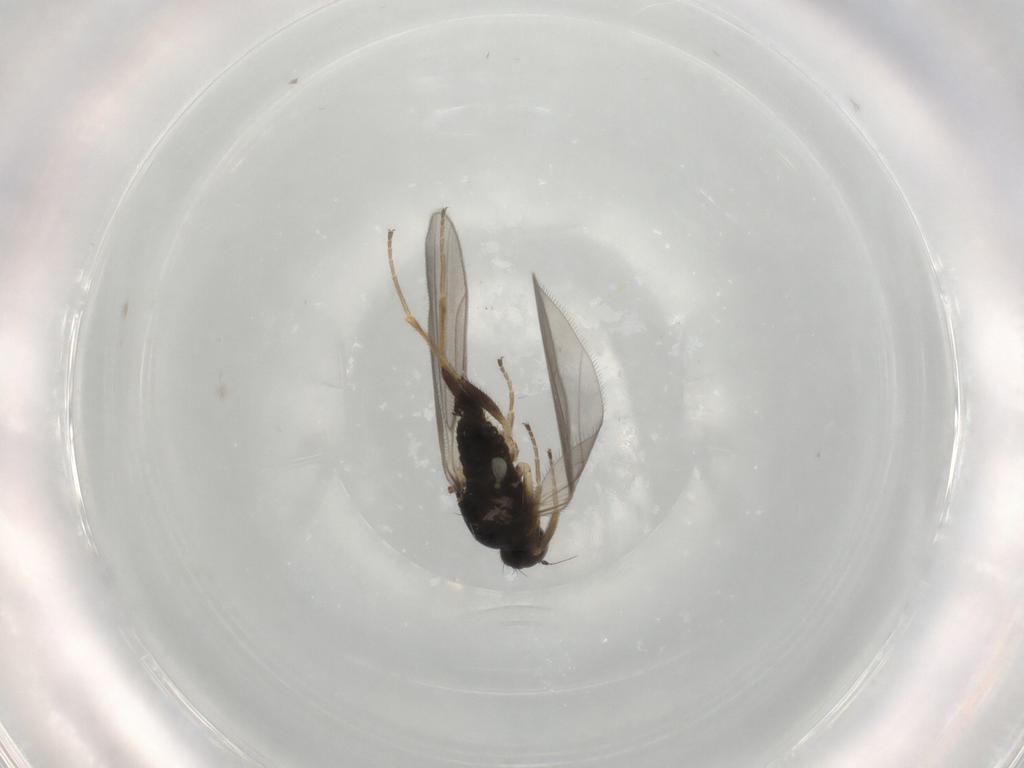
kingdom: Animalia
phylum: Arthropoda
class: Insecta
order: Diptera
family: Hybotidae
